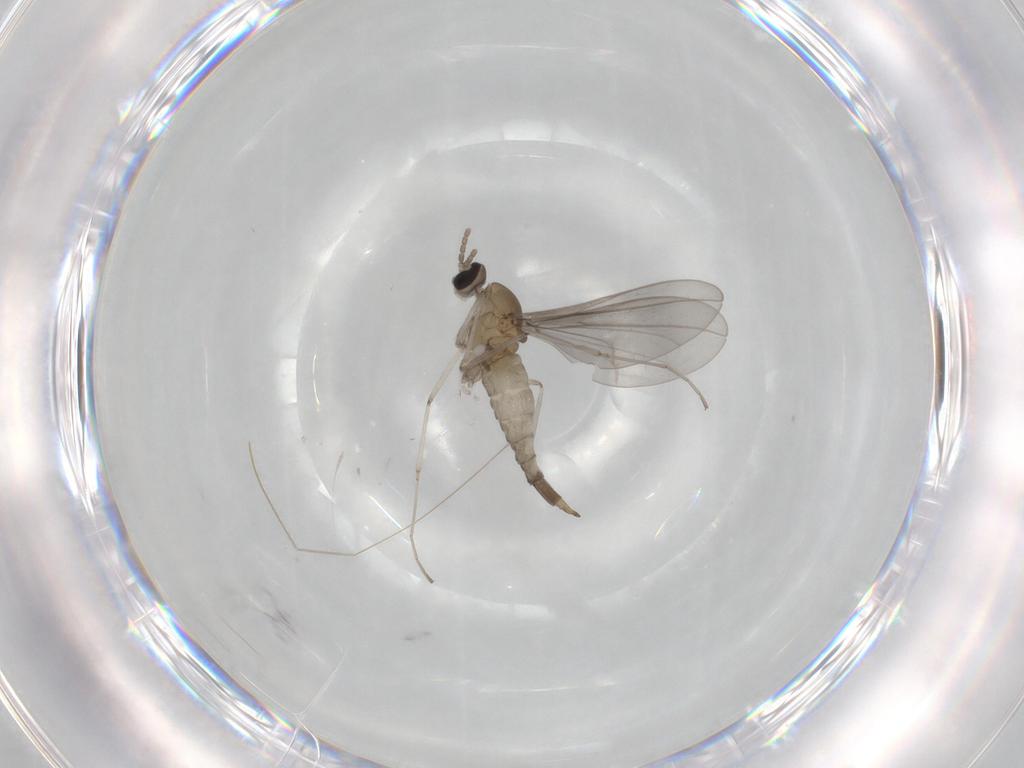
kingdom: Animalia
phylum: Arthropoda
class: Insecta
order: Diptera
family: Cecidomyiidae
